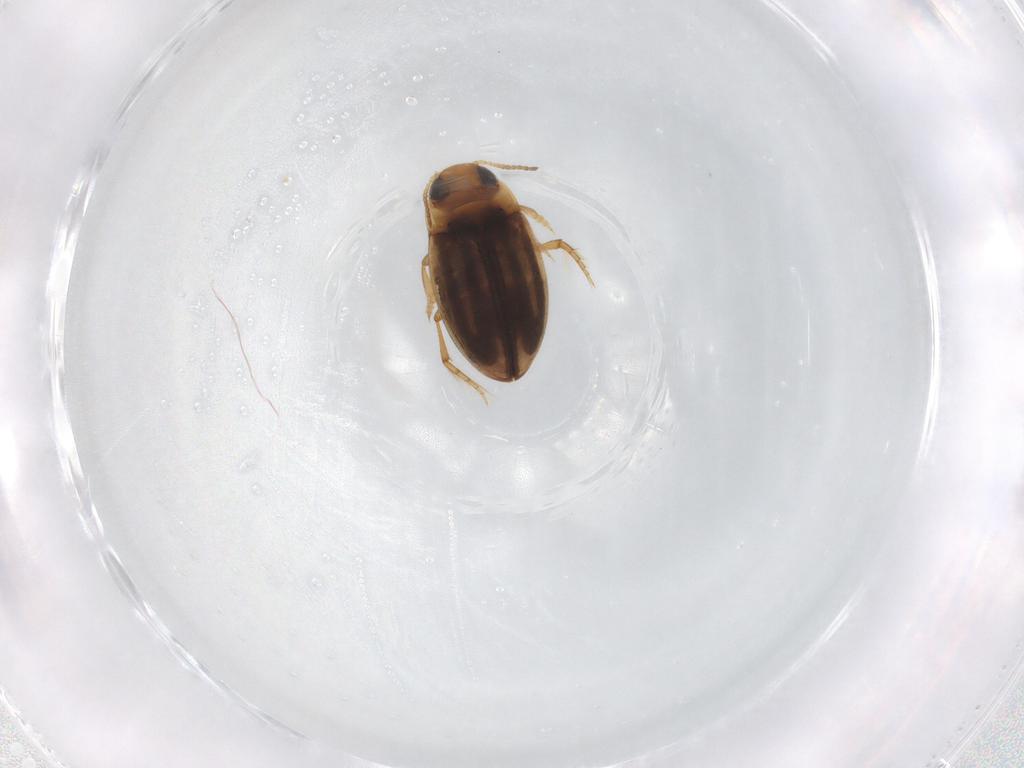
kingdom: Animalia
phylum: Arthropoda
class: Insecta
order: Coleoptera
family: Dytiscidae
